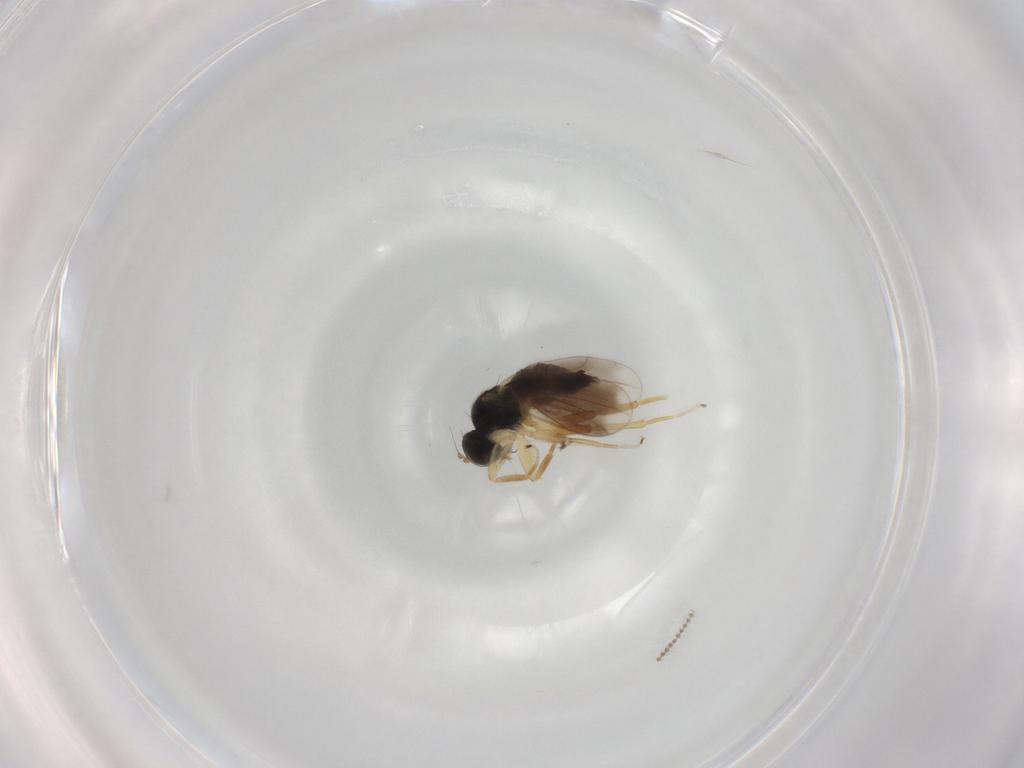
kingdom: Animalia
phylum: Arthropoda
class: Insecta
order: Diptera
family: Hybotidae
